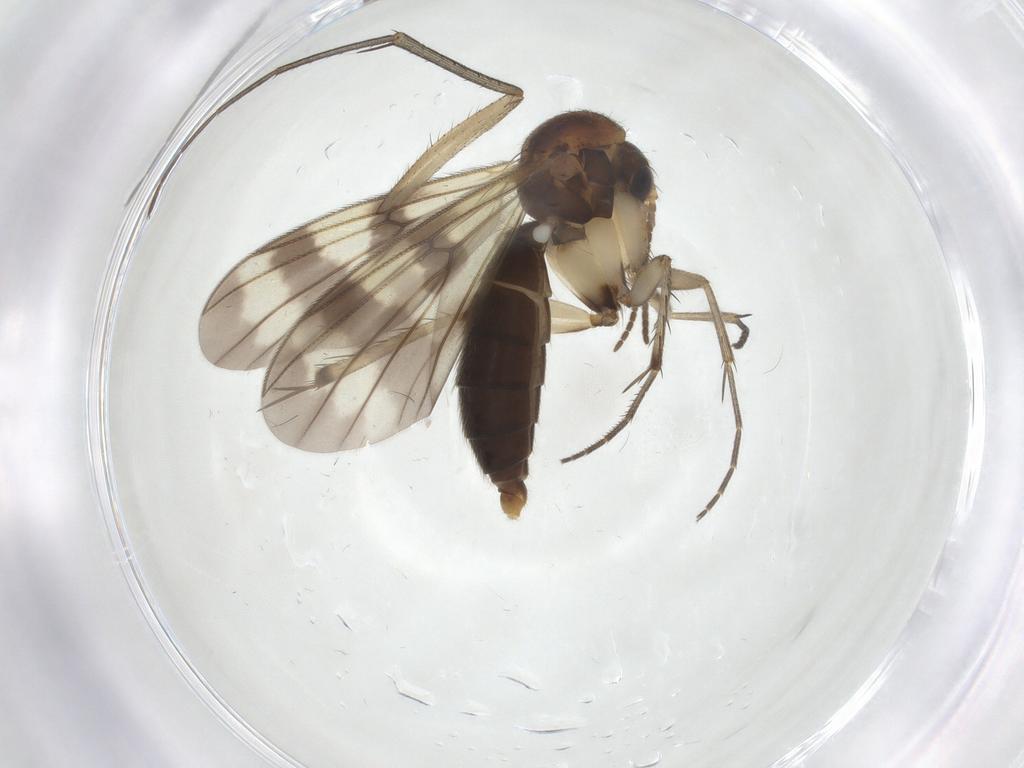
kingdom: Animalia
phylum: Arthropoda
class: Insecta
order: Diptera
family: Mycetophilidae
